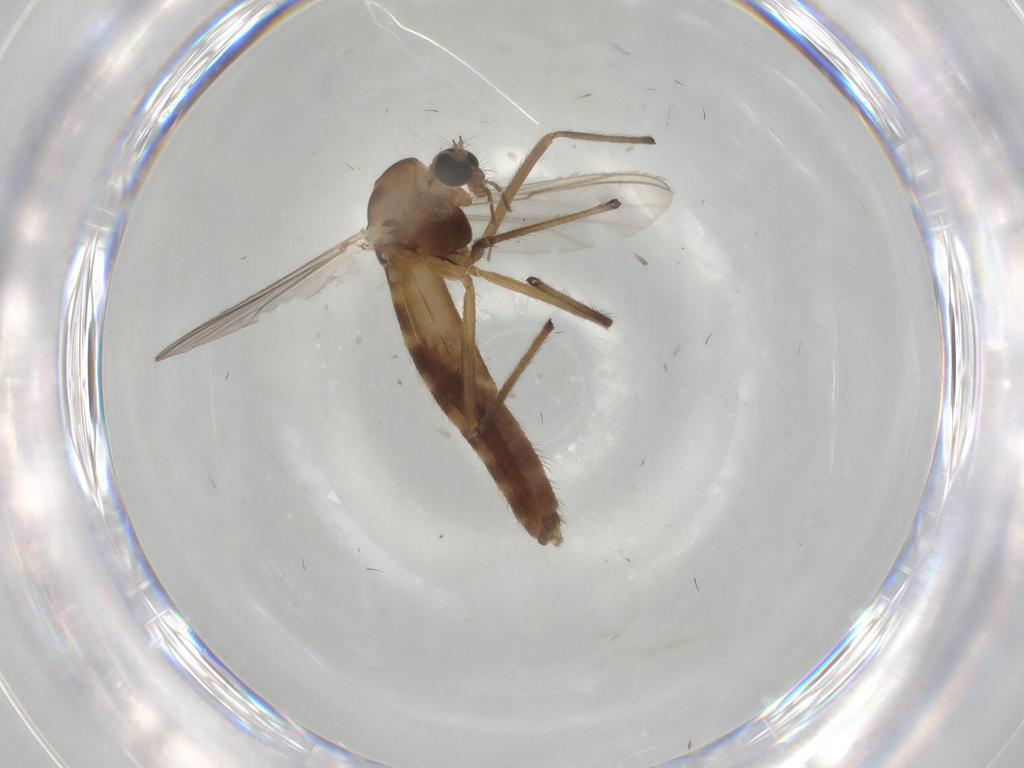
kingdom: Animalia
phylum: Arthropoda
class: Insecta
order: Diptera
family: Chironomidae
